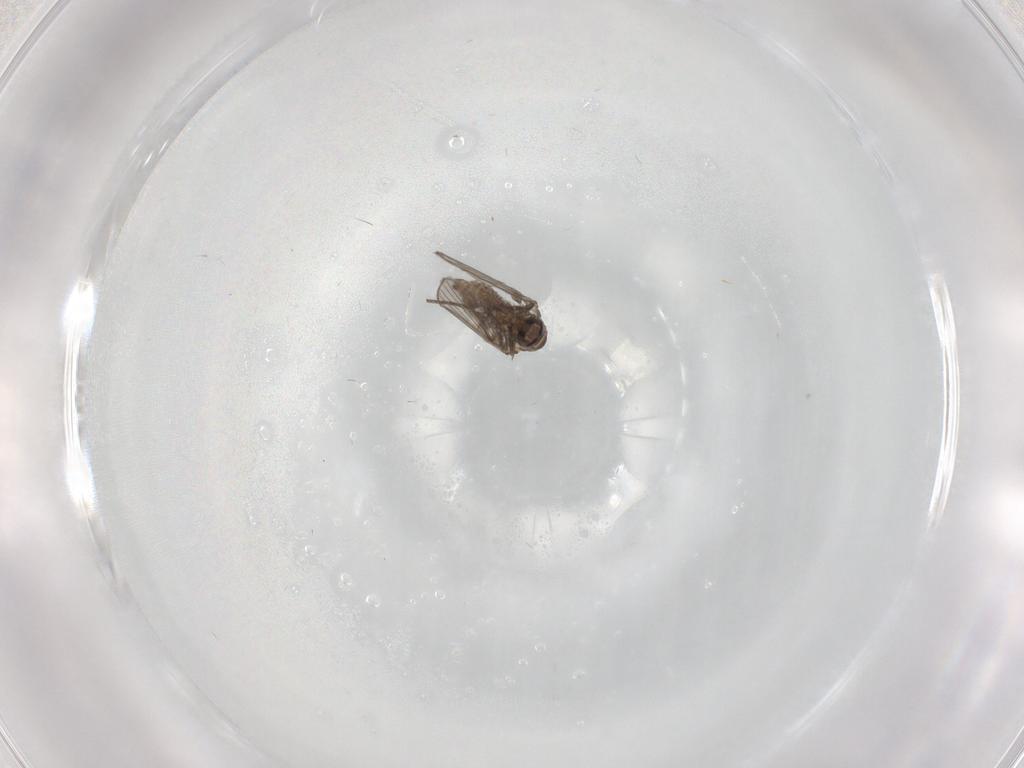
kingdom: Animalia
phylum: Arthropoda
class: Insecta
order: Diptera
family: Psychodidae
